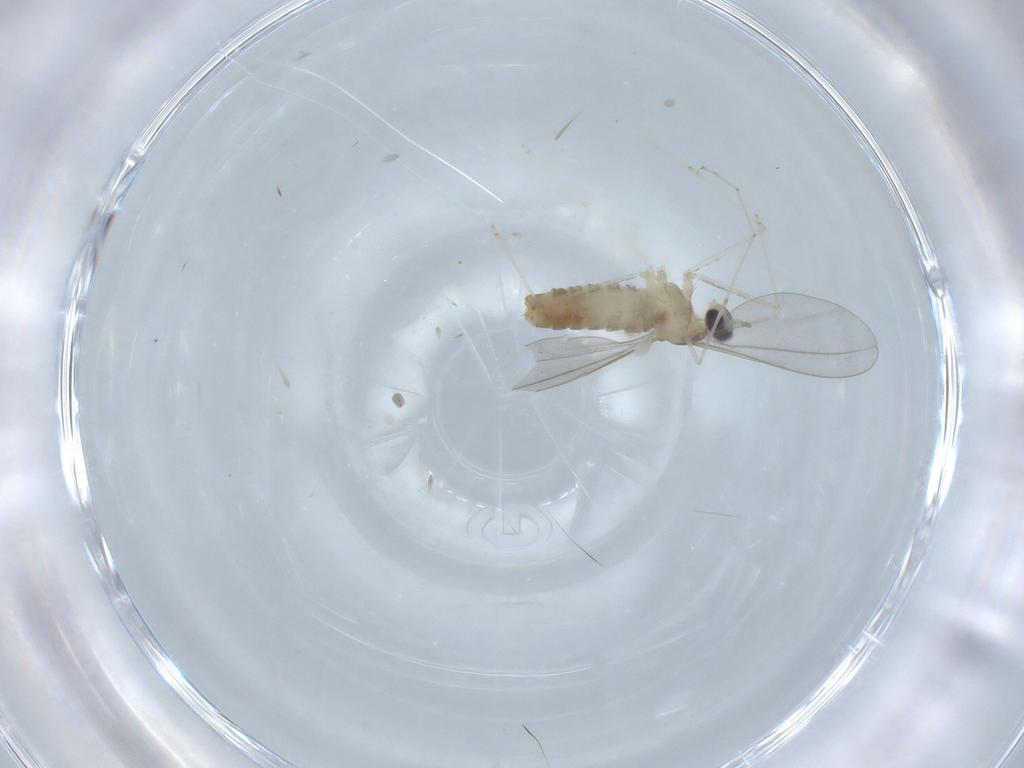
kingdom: Animalia
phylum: Arthropoda
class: Insecta
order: Diptera
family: Cecidomyiidae
